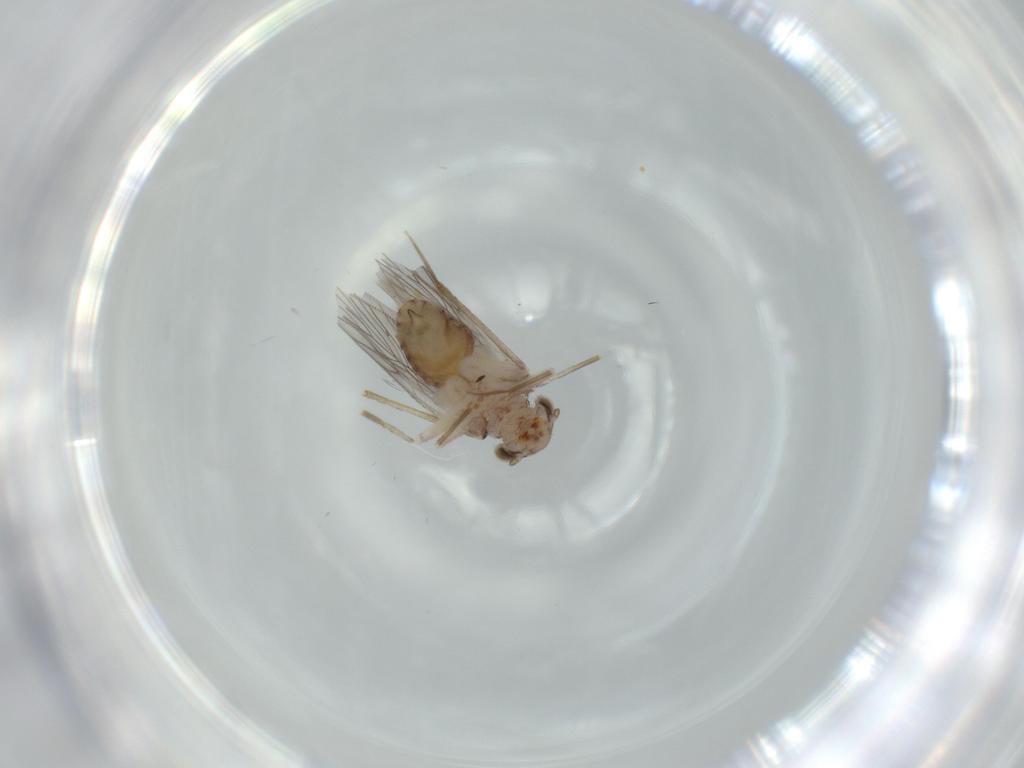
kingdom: Animalia
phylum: Arthropoda
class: Insecta
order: Psocodea
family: Lepidopsocidae
